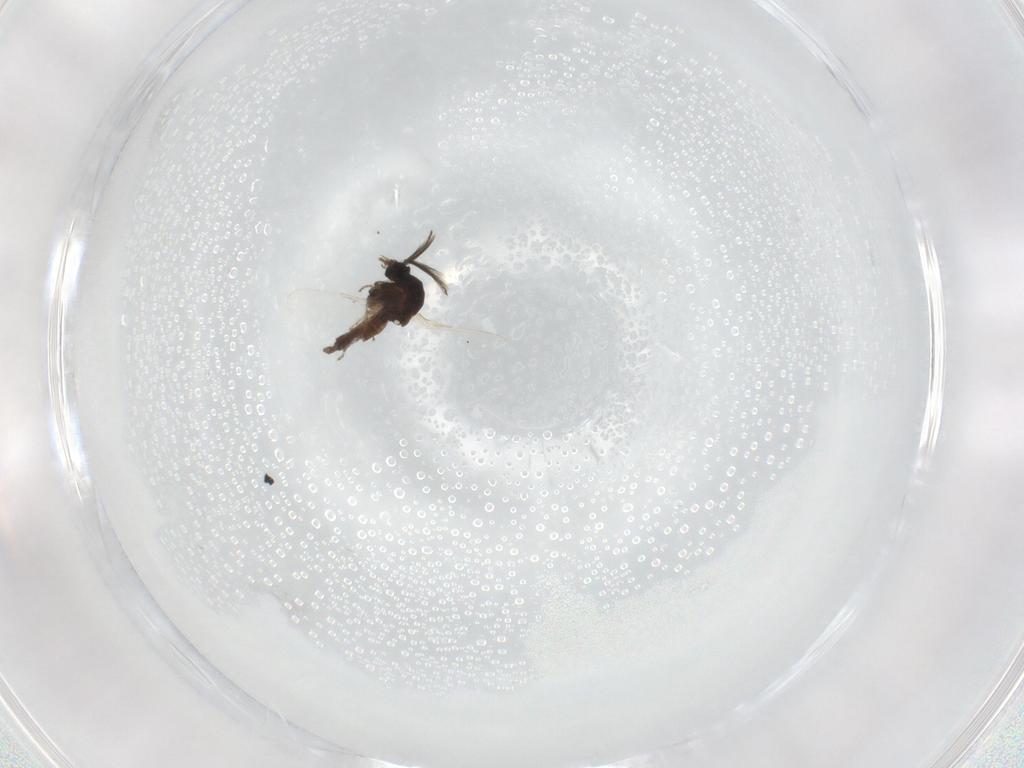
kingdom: Animalia
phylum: Arthropoda
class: Insecta
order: Diptera
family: Ceratopogonidae
